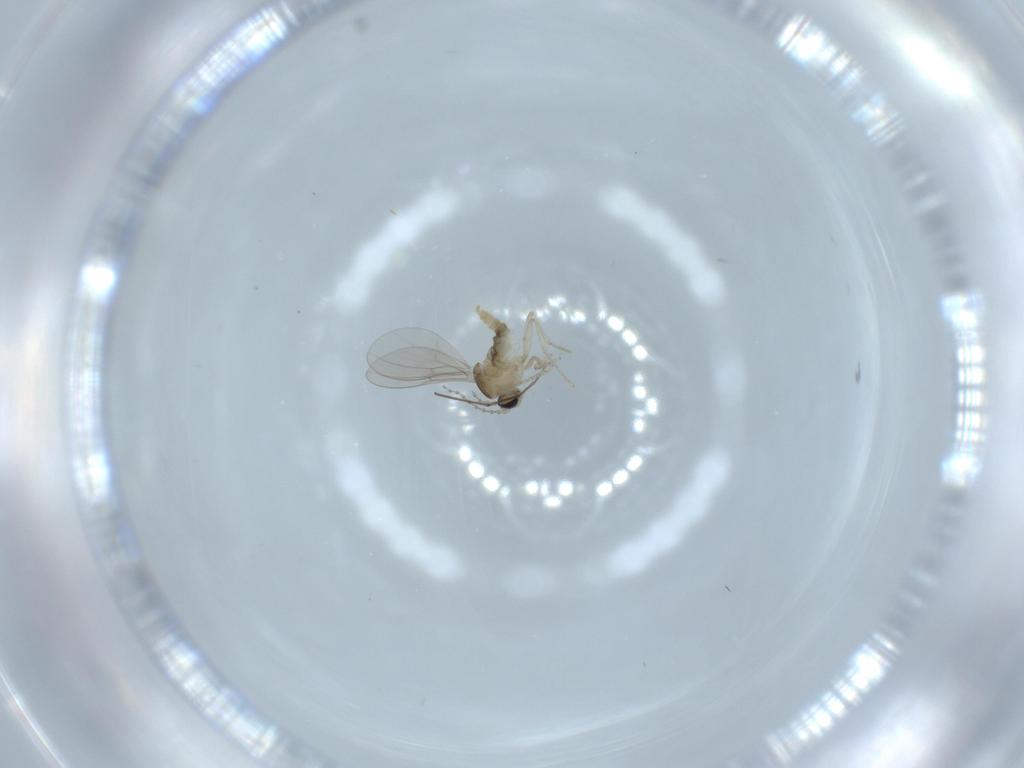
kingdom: Animalia
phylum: Arthropoda
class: Insecta
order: Diptera
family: Cecidomyiidae
